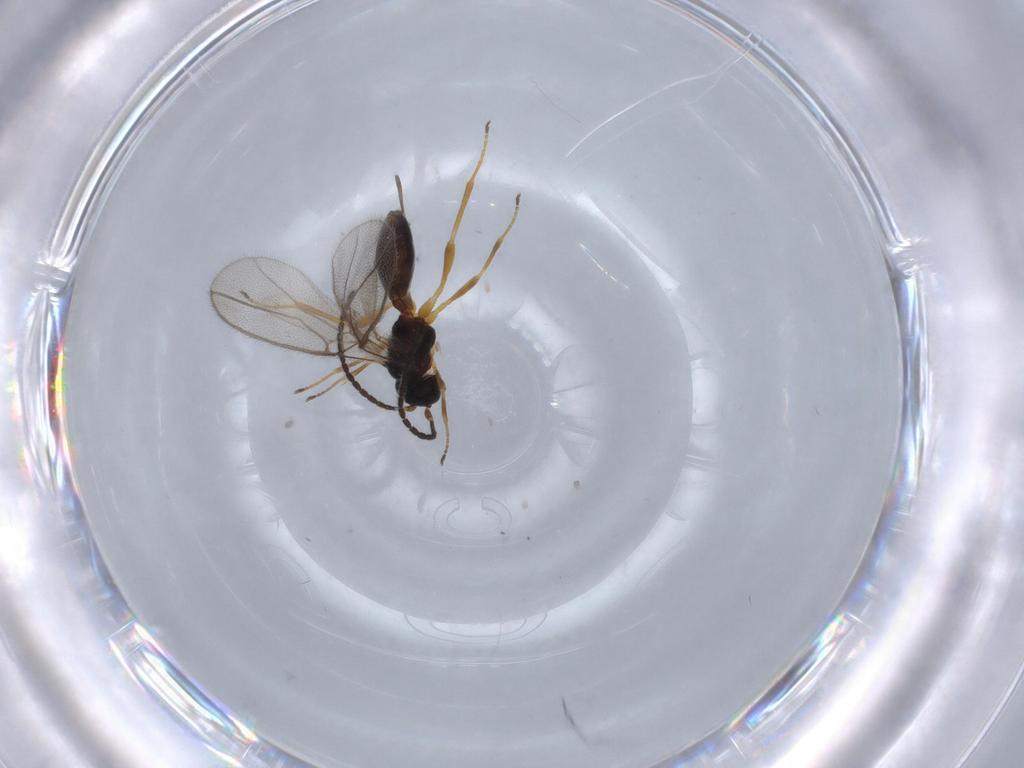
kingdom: Animalia
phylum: Arthropoda
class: Insecta
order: Hymenoptera
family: Braconidae
